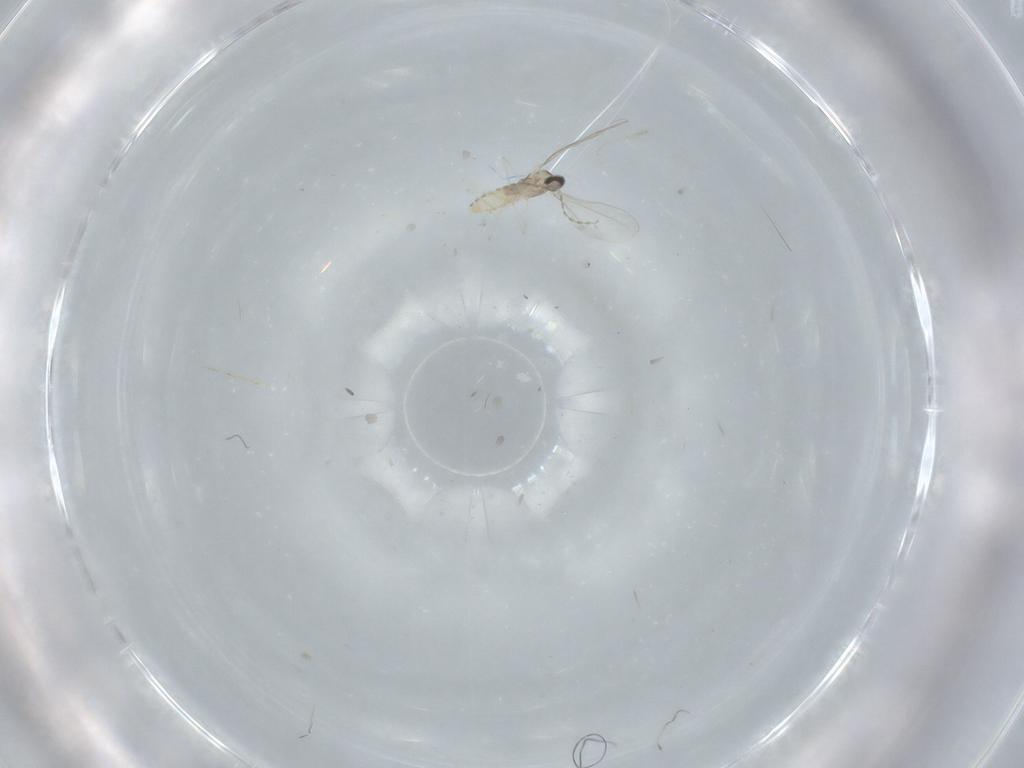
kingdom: Animalia
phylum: Arthropoda
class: Insecta
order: Diptera
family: Cecidomyiidae
